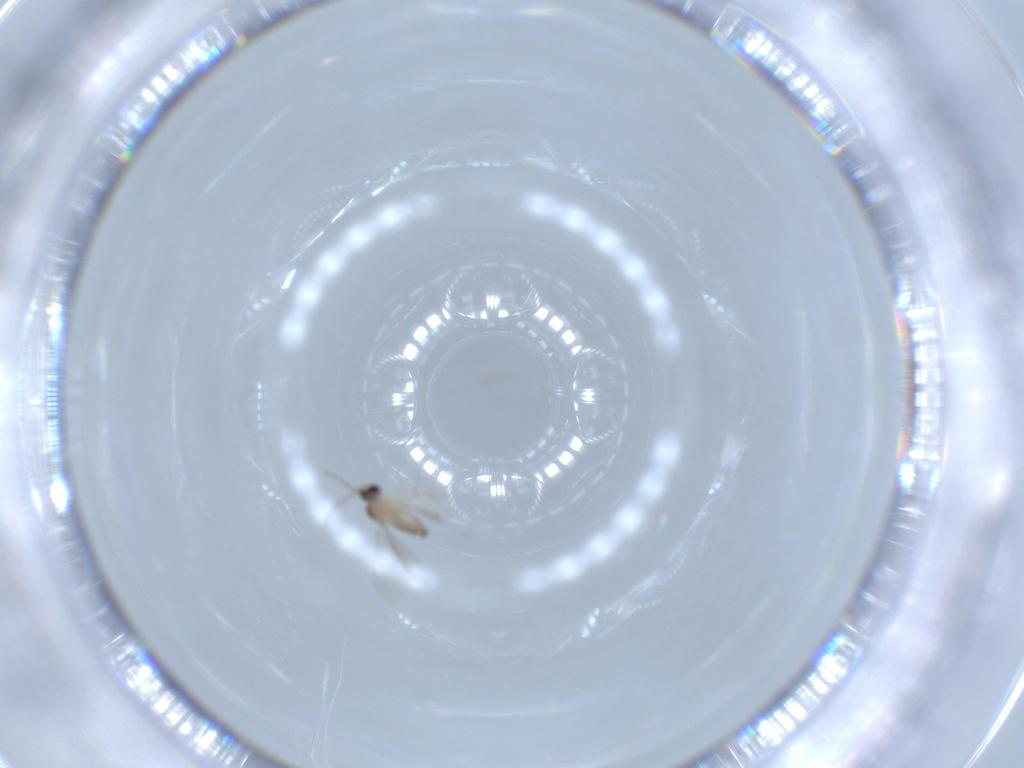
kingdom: Animalia
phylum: Arthropoda
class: Insecta
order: Diptera
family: Cecidomyiidae
